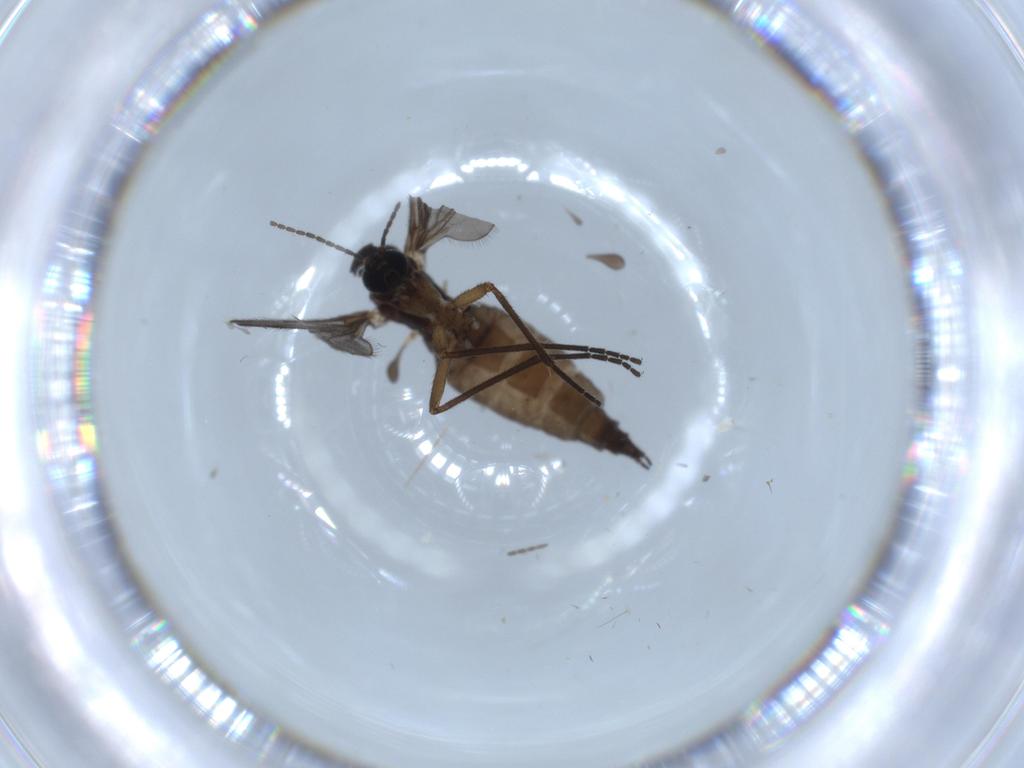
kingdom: Animalia
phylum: Arthropoda
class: Insecta
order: Diptera
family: Sciaridae
